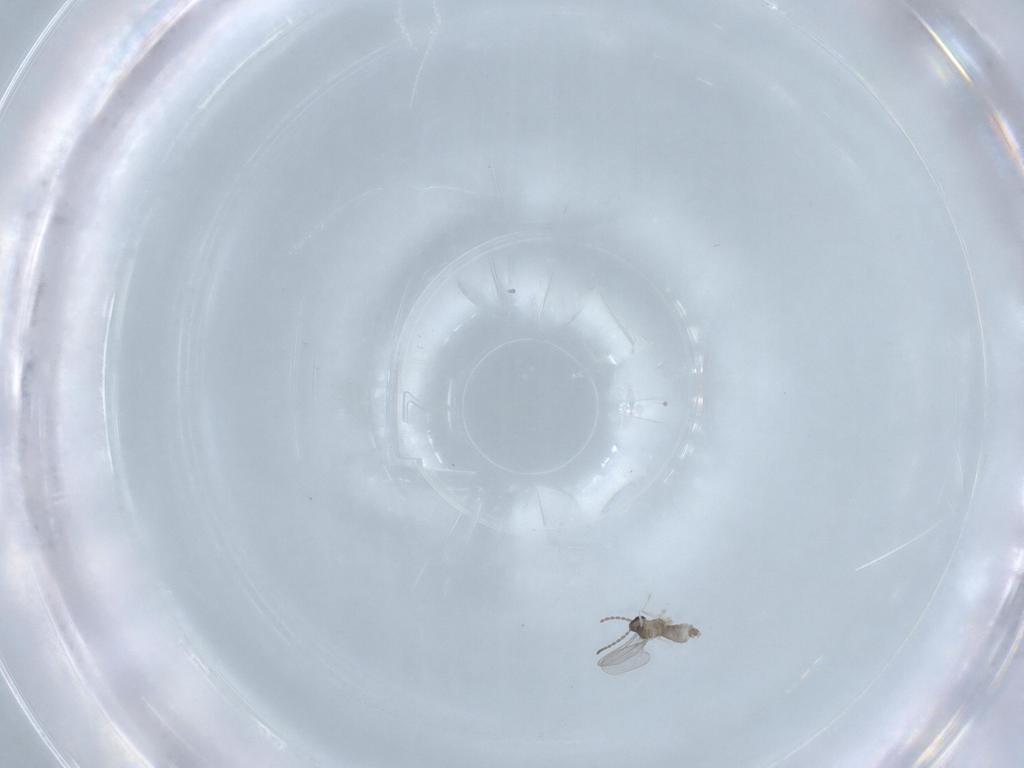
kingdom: Animalia
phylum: Arthropoda
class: Insecta
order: Diptera
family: Cecidomyiidae
